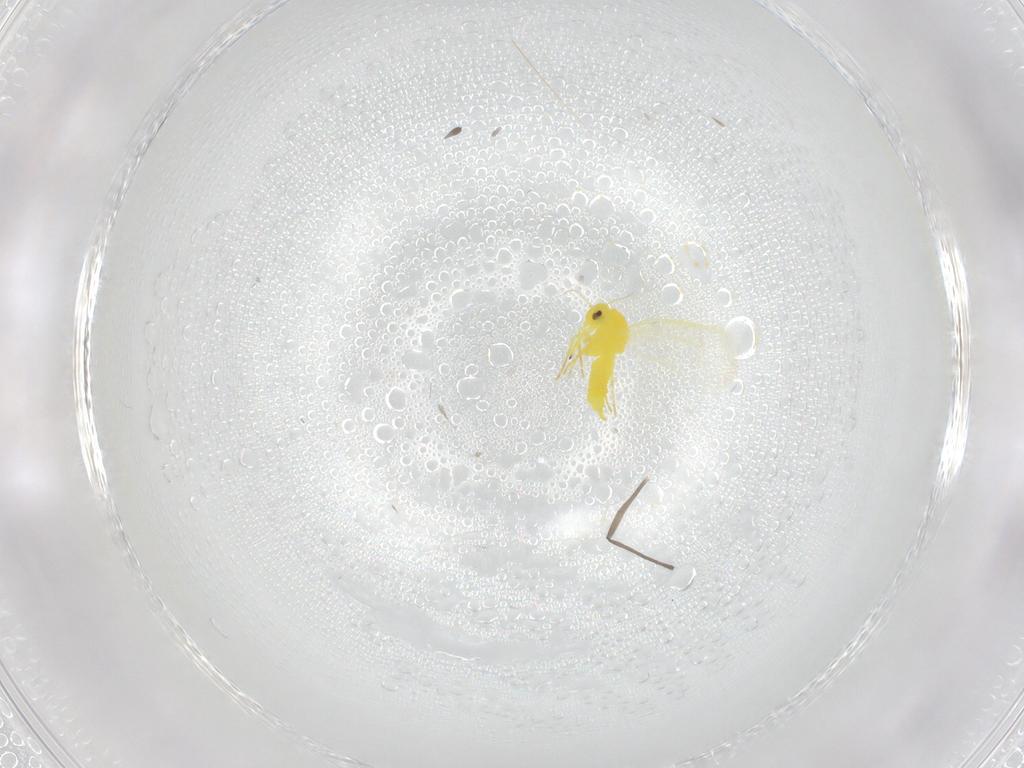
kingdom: Animalia
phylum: Arthropoda
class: Insecta
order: Hemiptera
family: Aleyrodidae
